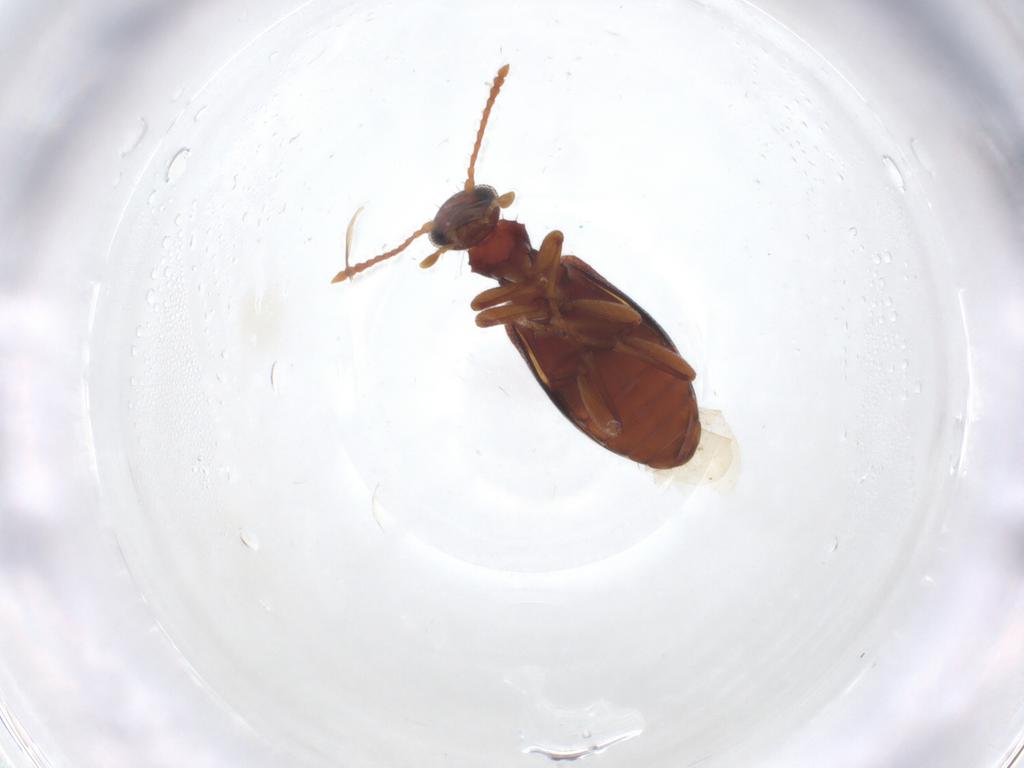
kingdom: Animalia
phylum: Arthropoda
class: Insecta
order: Coleoptera
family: Anthicidae
